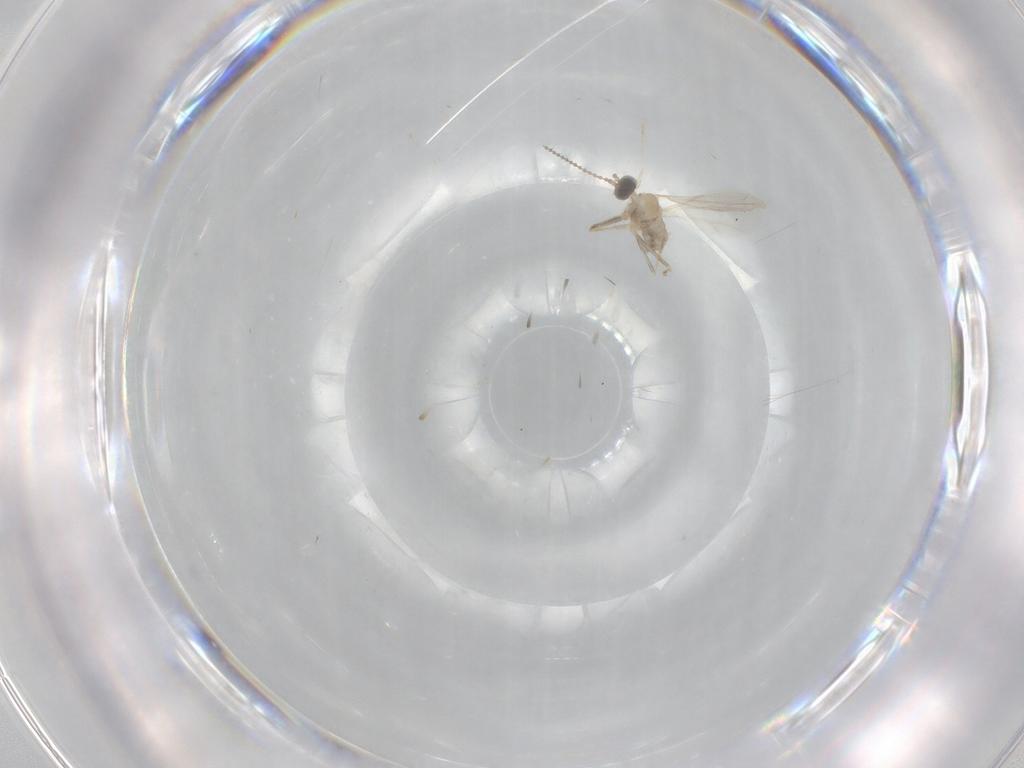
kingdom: Animalia
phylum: Arthropoda
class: Insecta
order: Diptera
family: Cecidomyiidae
